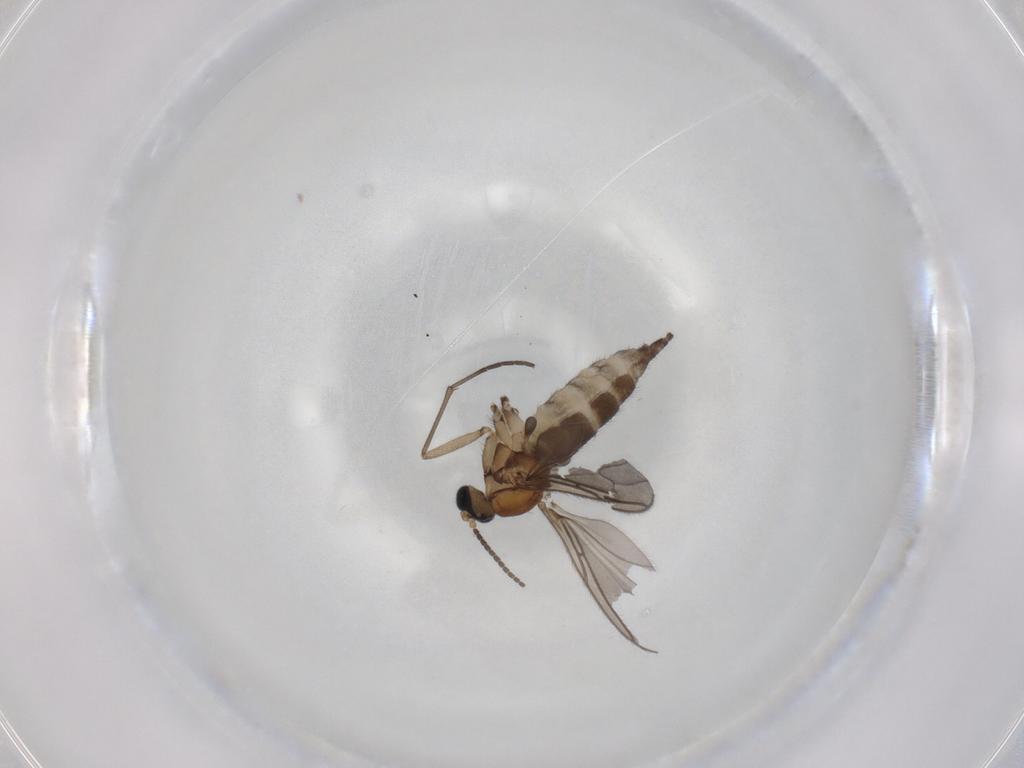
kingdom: Animalia
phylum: Arthropoda
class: Insecta
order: Diptera
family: Sciaridae
